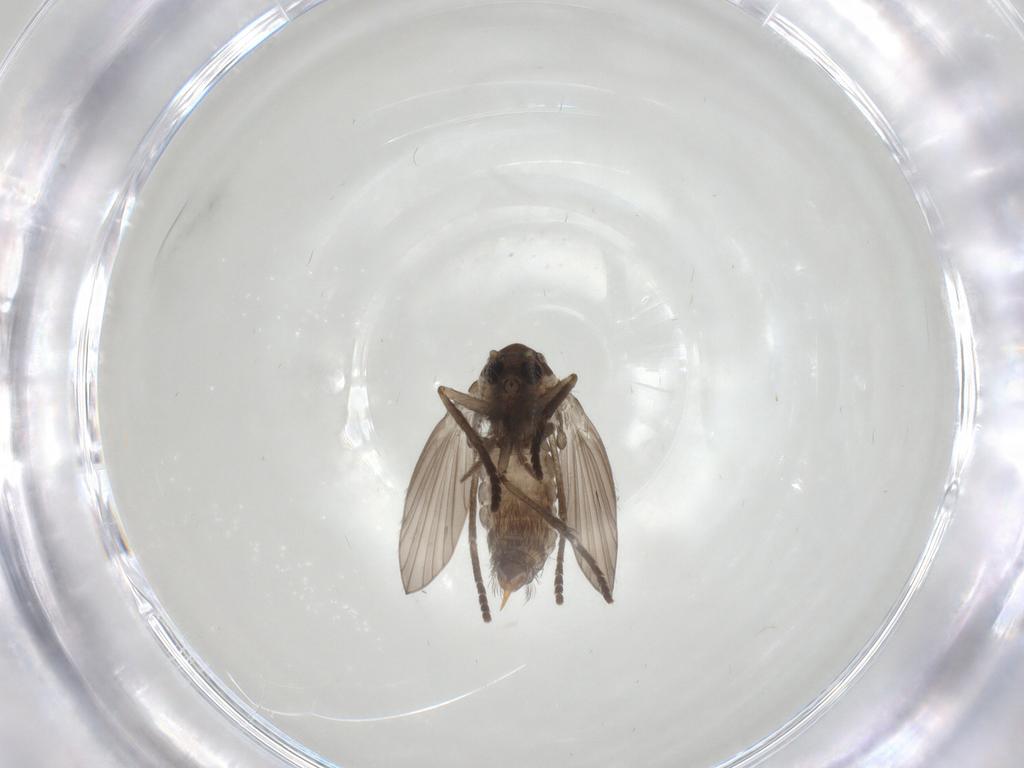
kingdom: Animalia
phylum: Arthropoda
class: Insecta
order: Diptera
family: Psychodidae
